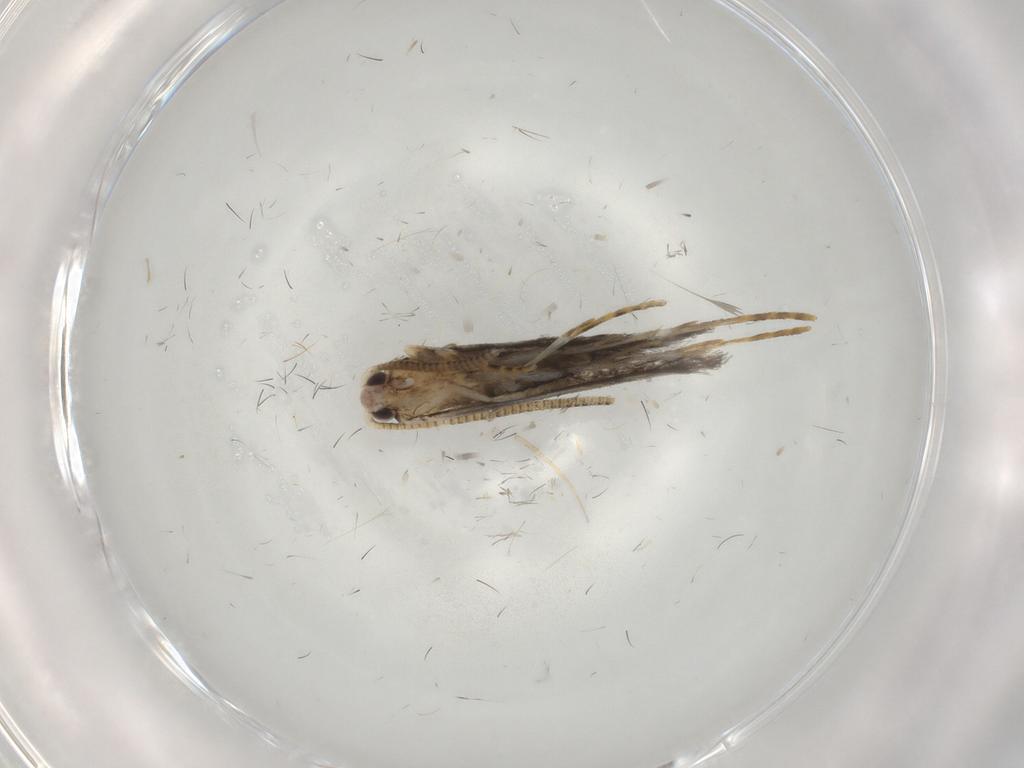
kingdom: Animalia
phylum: Arthropoda
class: Insecta
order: Lepidoptera
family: Tineidae
